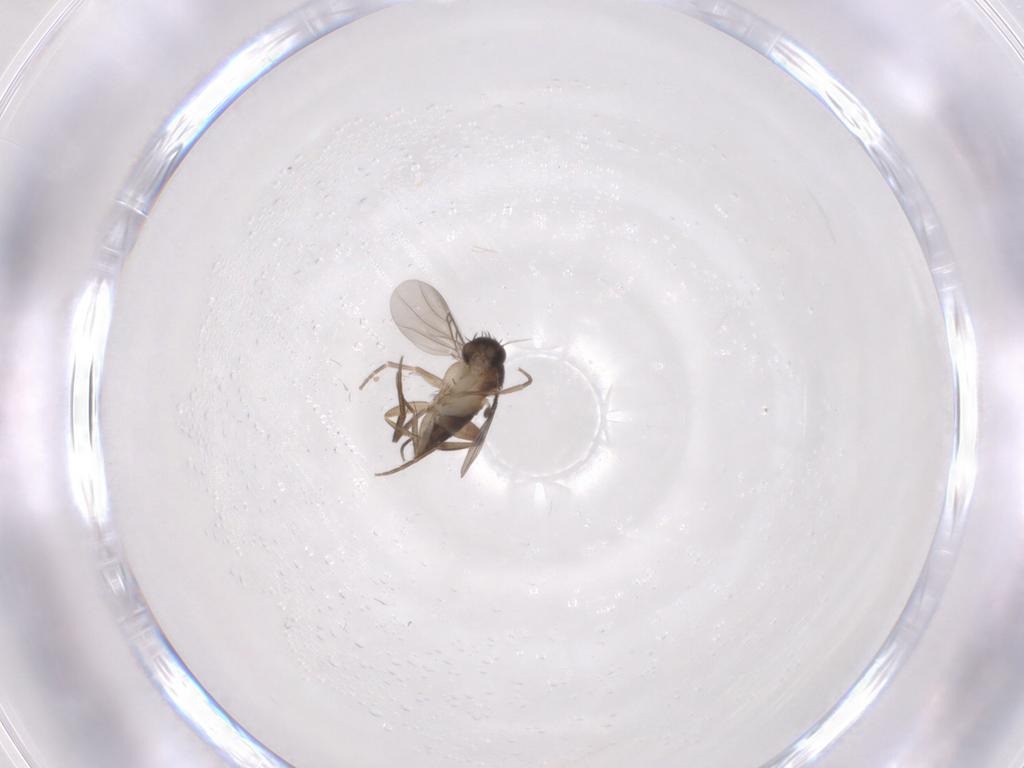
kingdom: Animalia
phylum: Arthropoda
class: Insecta
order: Diptera
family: Phoridae
